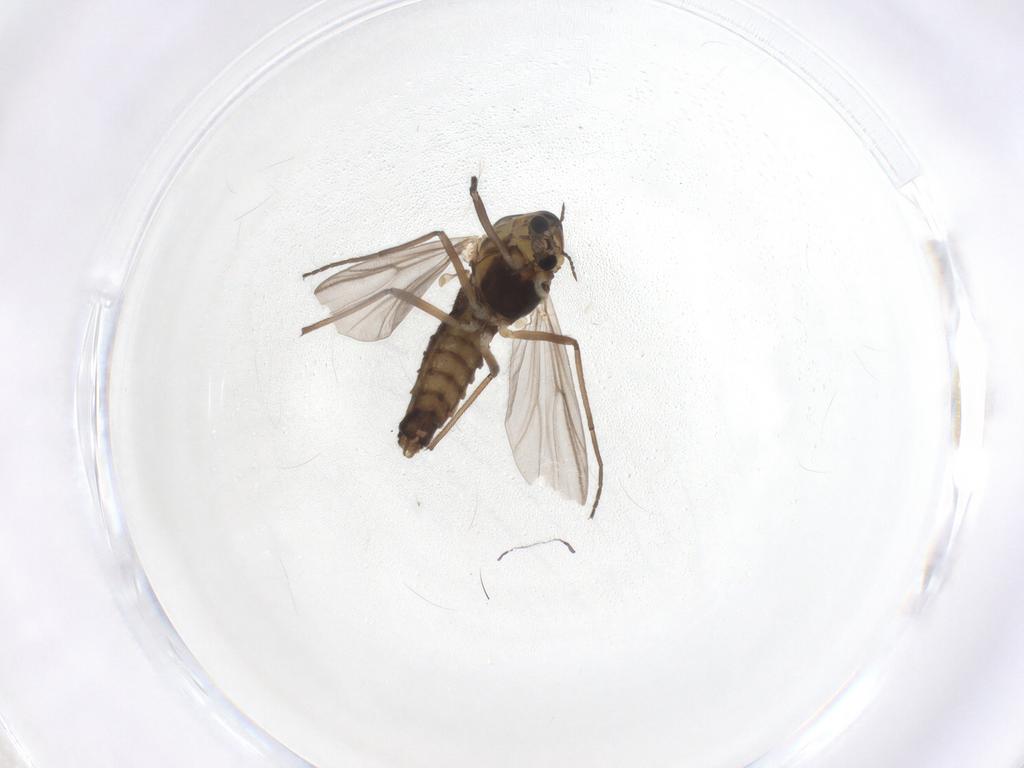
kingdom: Animalia
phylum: Arthropoda
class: Insecta
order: Diptera
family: Chironomidae
